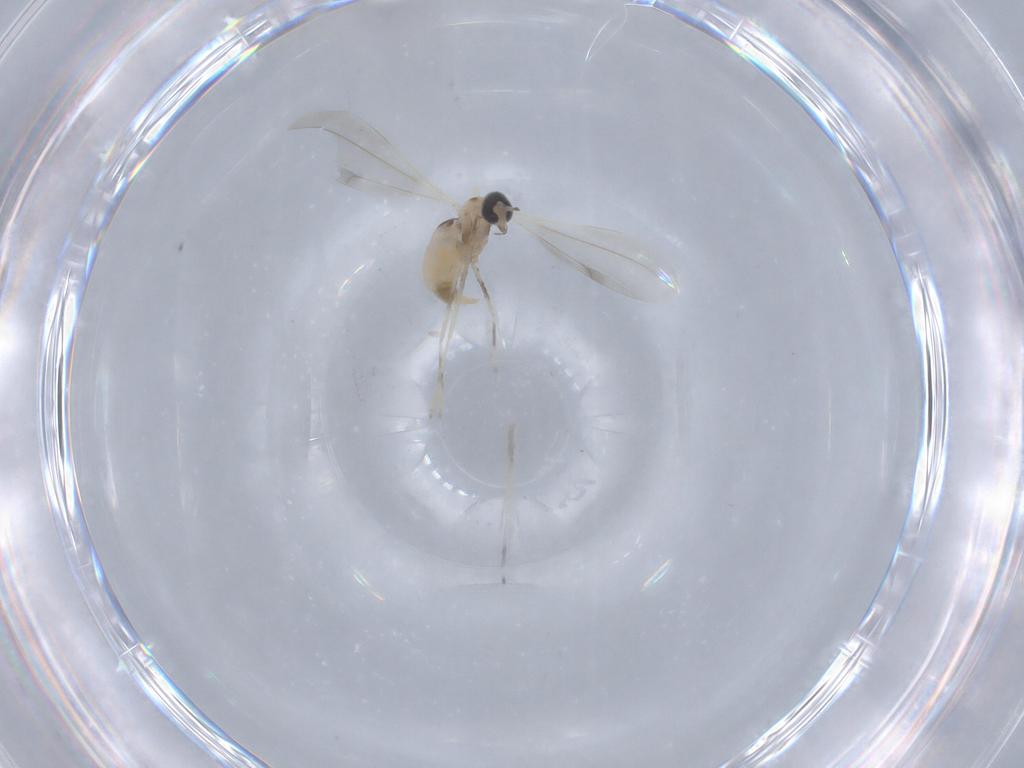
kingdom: Animalia
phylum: Arthropoda
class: Insecta
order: Diptera
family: Cecidomyiidae
